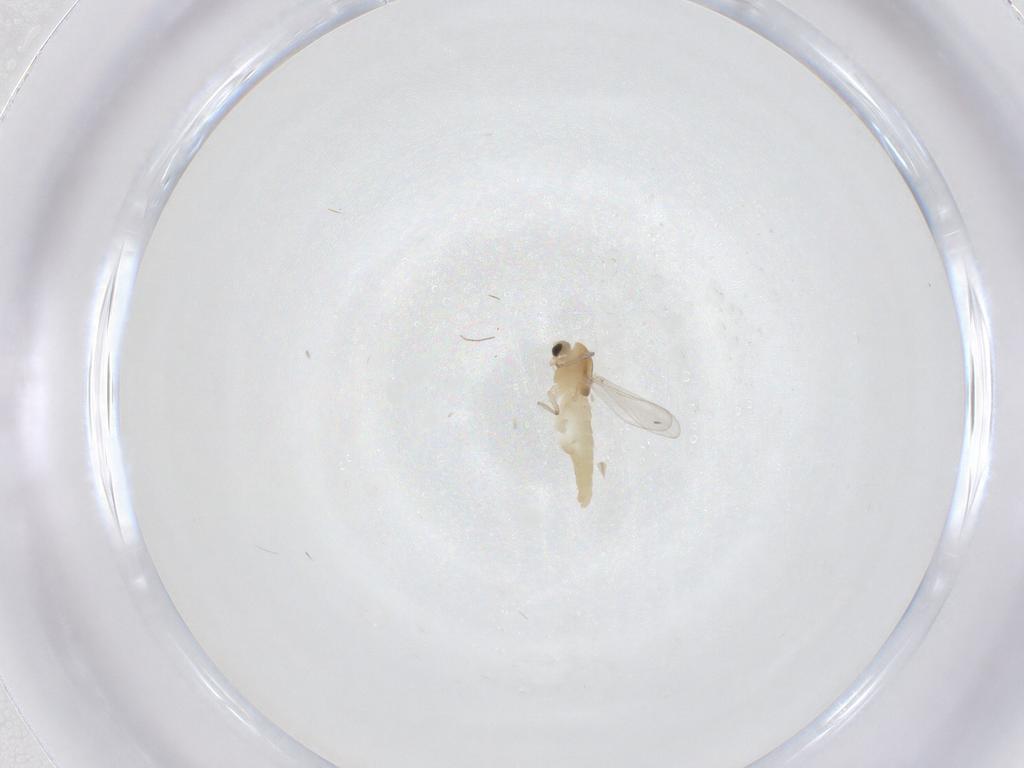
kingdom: Animalia
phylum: Arthropoda
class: Insecta
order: Diptera
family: Chironomidae
